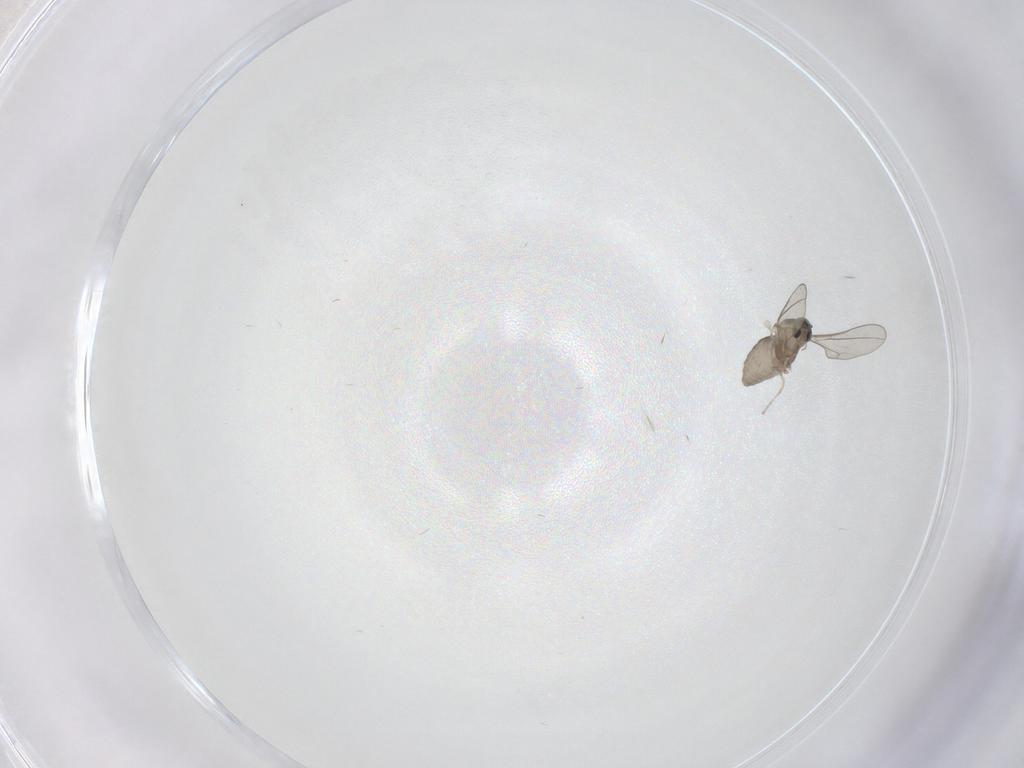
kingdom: Animalia
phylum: Arthropoda
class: Insecta
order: Diptera
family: Cecidomyiidae
